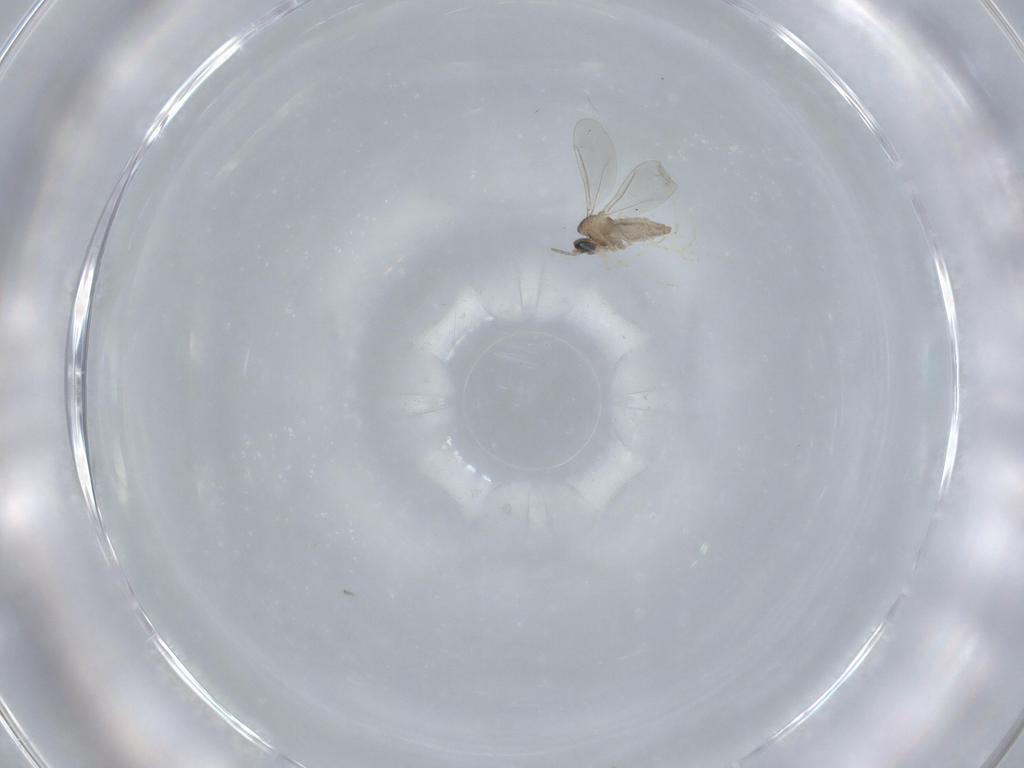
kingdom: Animalia
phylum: Arthropoda
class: Insecta
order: Diptera
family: Cecidomyiidae
